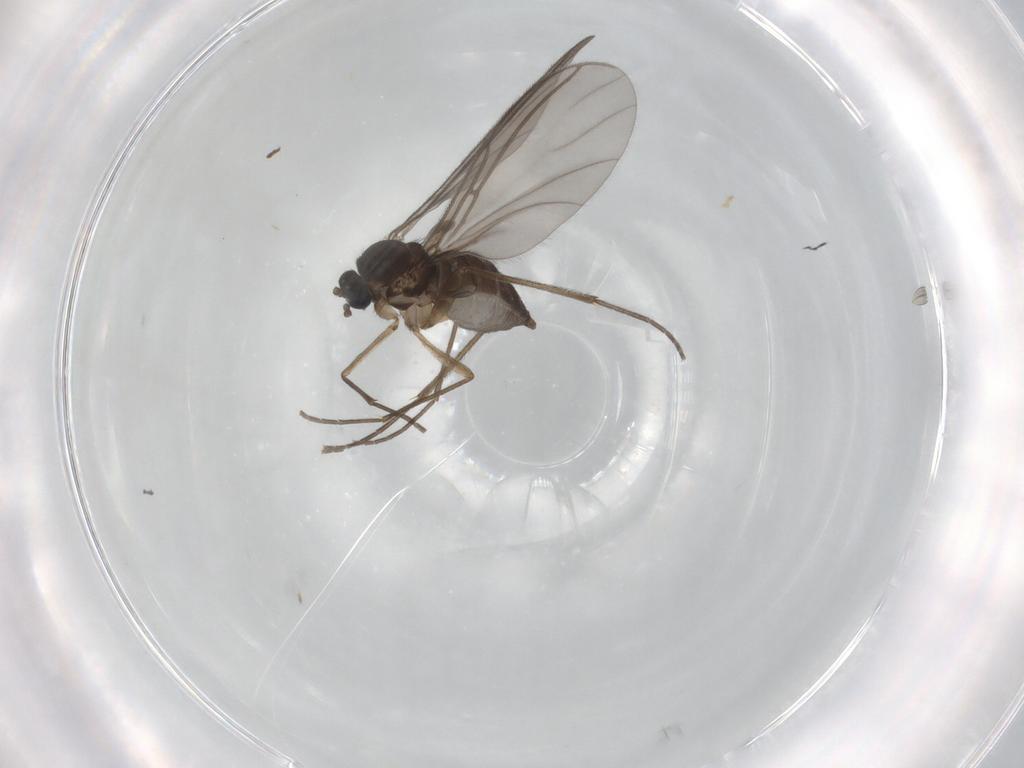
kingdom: Animalia
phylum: Arthropoda
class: Insecta
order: Diptera
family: Sciaridae
